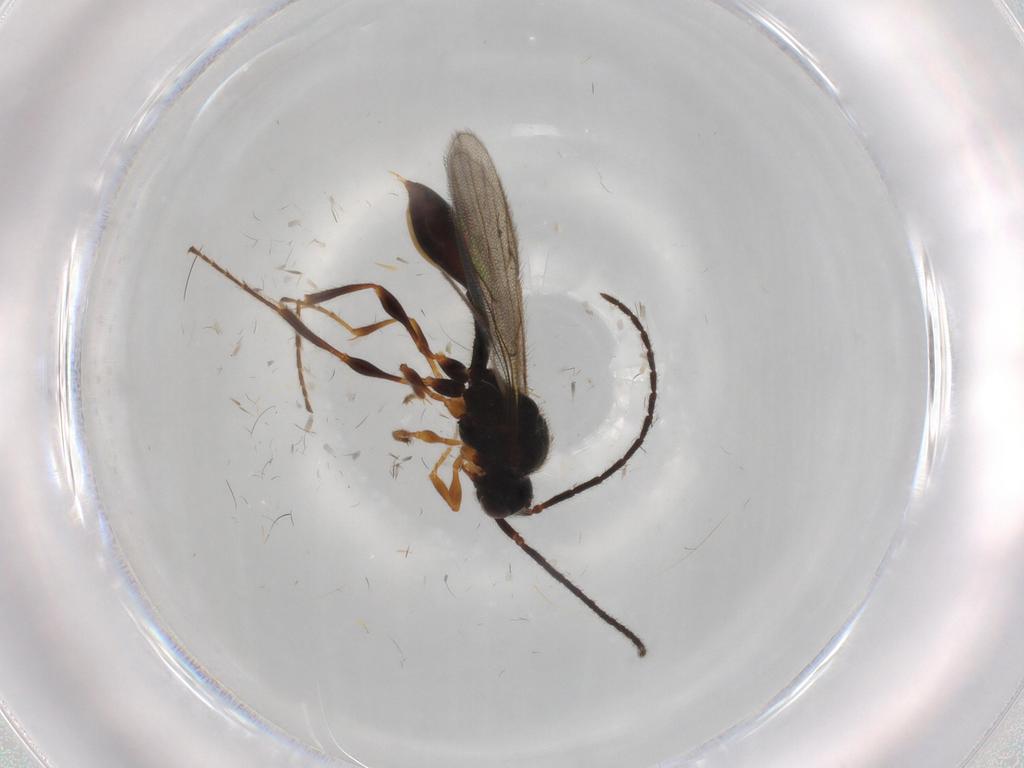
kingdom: Animalia
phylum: Arthropoda
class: Insecta
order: Hymenoptera
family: Diapriidae
